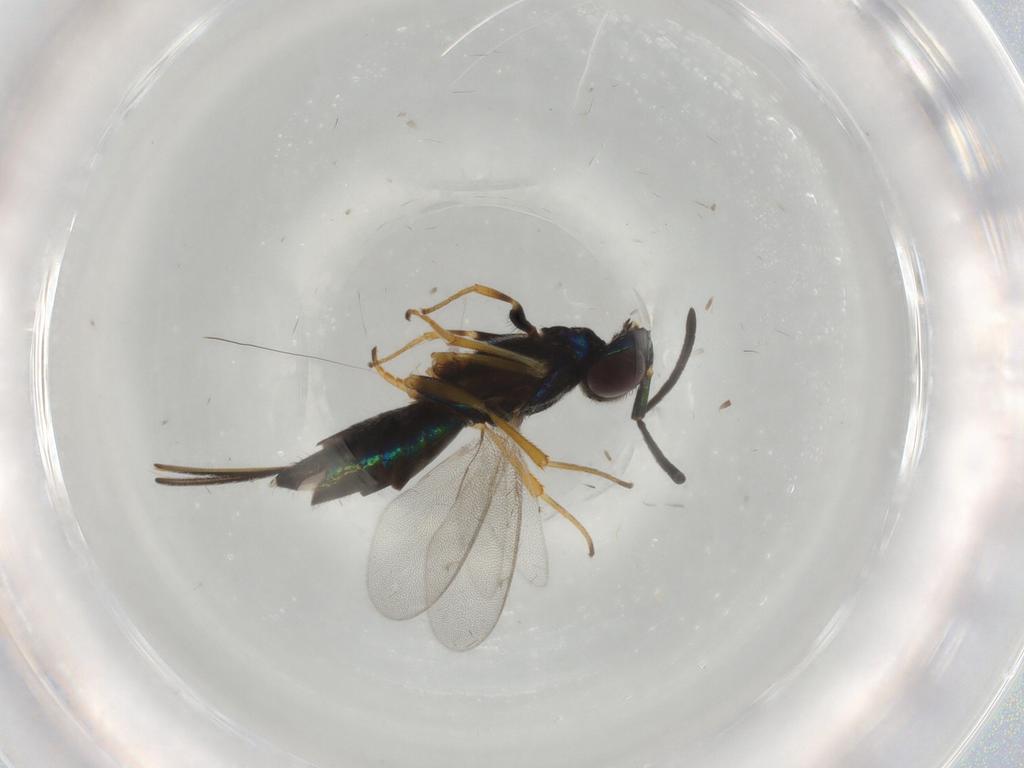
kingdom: Animalia
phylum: Arthropoda
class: Insecta
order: Hymenoptera
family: Eupelmidae
